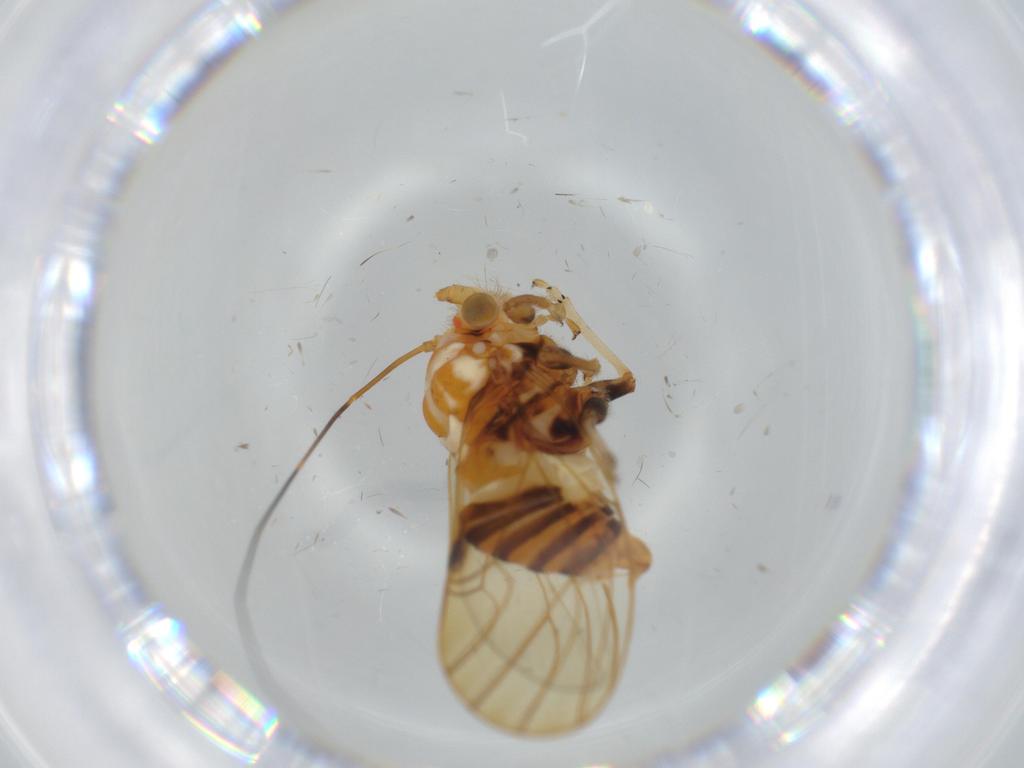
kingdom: Animalia
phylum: Arthropoda
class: Insecta
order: Hemiptera
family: Psyllidae
